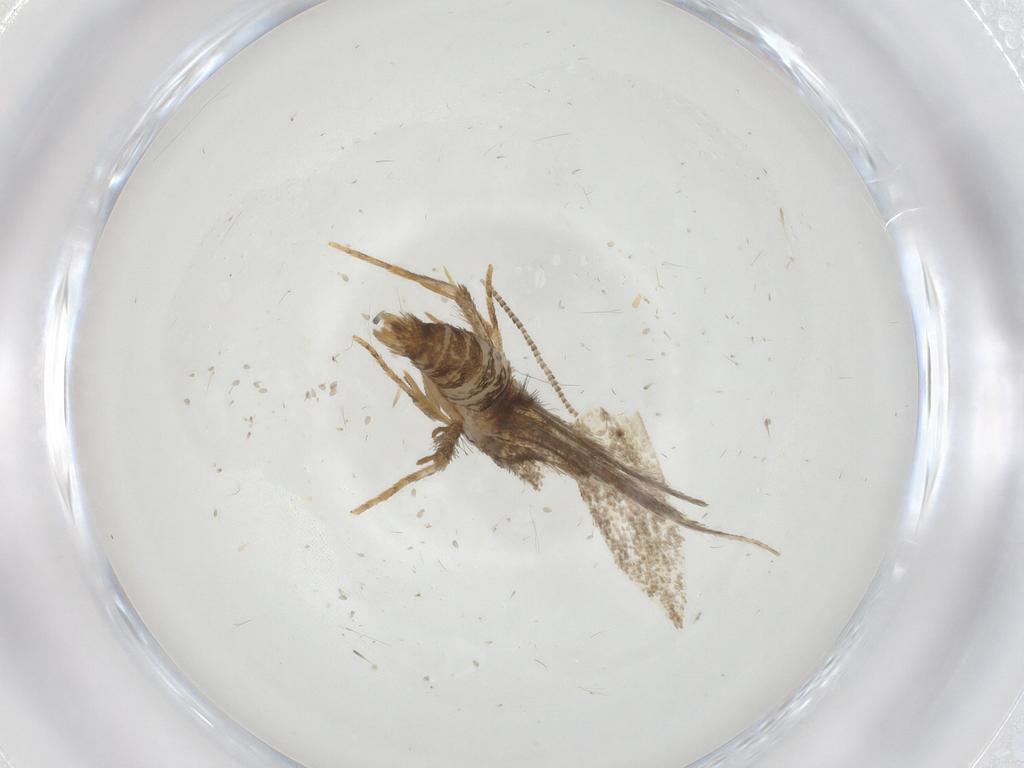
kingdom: Animalia
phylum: Arthropoda
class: Insecta
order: Lepidoptera
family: Tineidae
